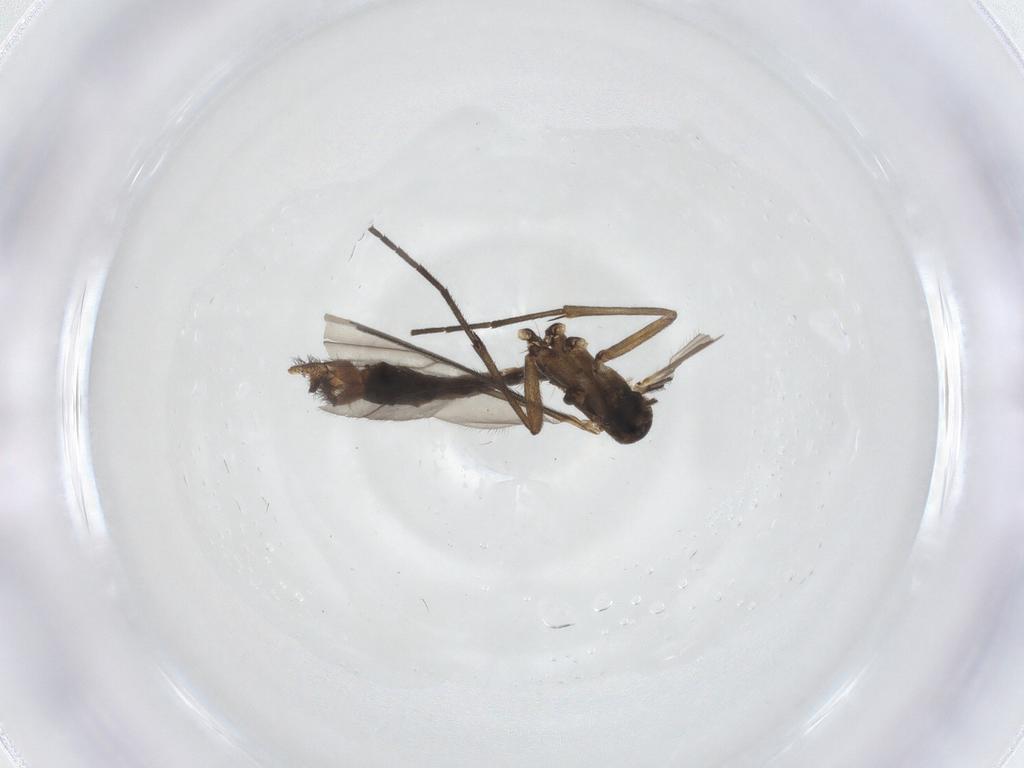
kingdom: Animalia
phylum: Arthropoda
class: Insecta
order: Diptera
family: Mycetophilidae
